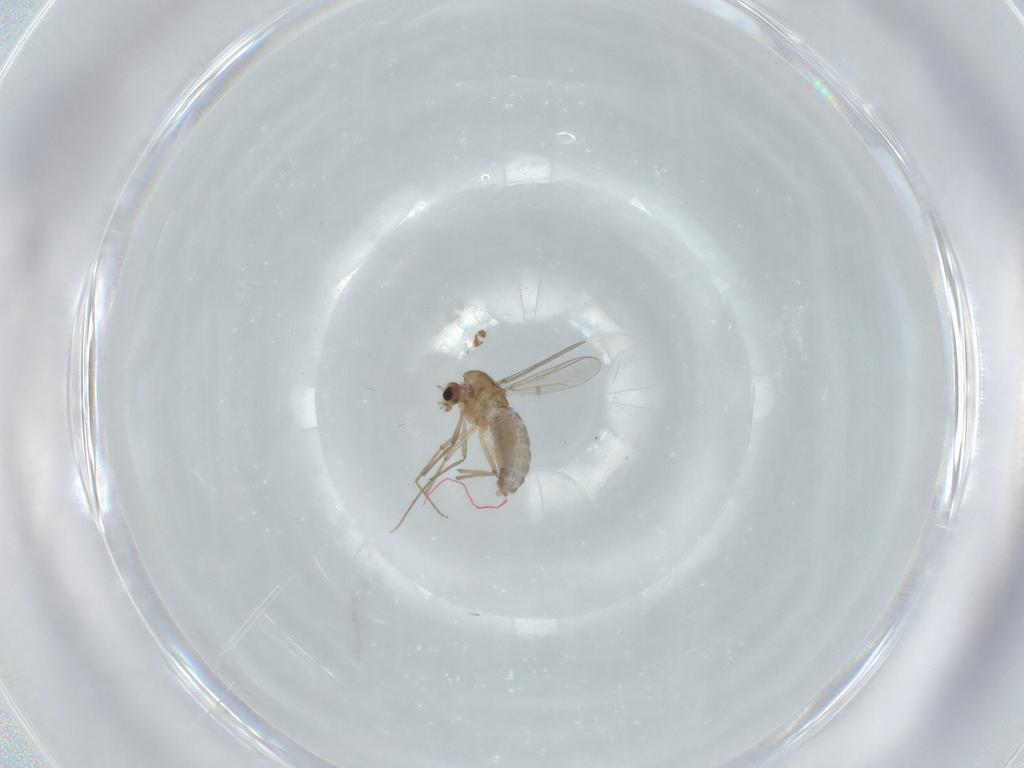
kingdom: Animalia
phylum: Arthropoda
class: Insecta
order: Diptera
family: Chironomidae
